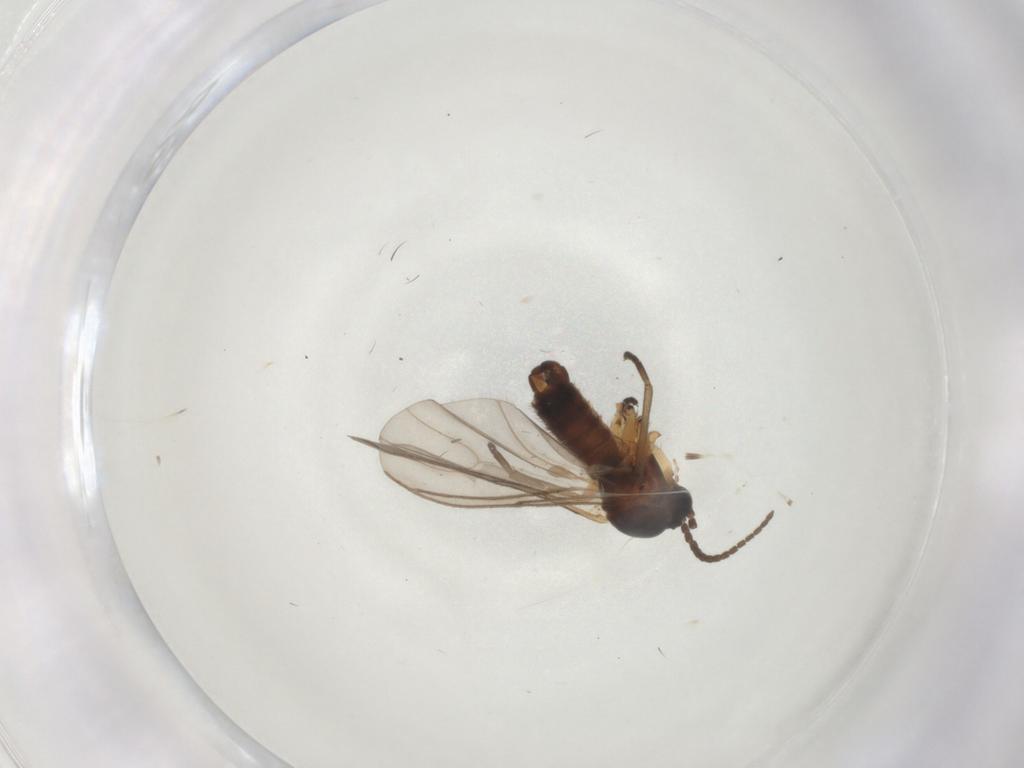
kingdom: Animalia
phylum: Arthropoda
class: Insecta
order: Diptera
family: Sciaridae
